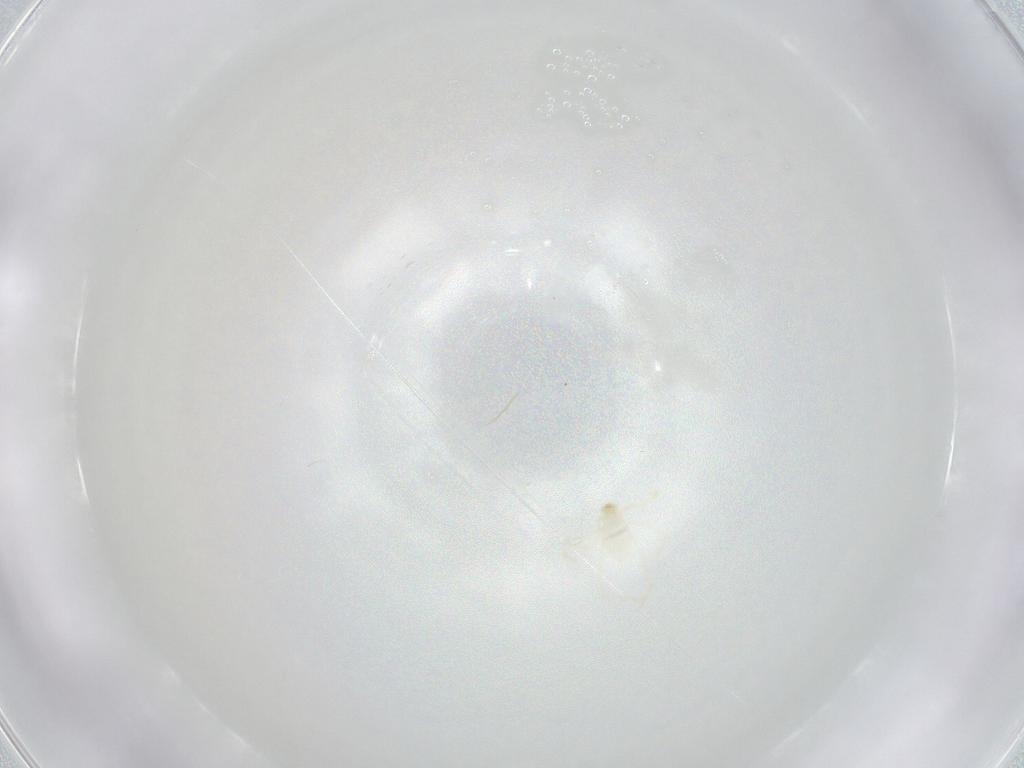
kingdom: Animalia
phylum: Arthropoda
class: Arachnida
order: Trombidiformes
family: Erythraeidae
